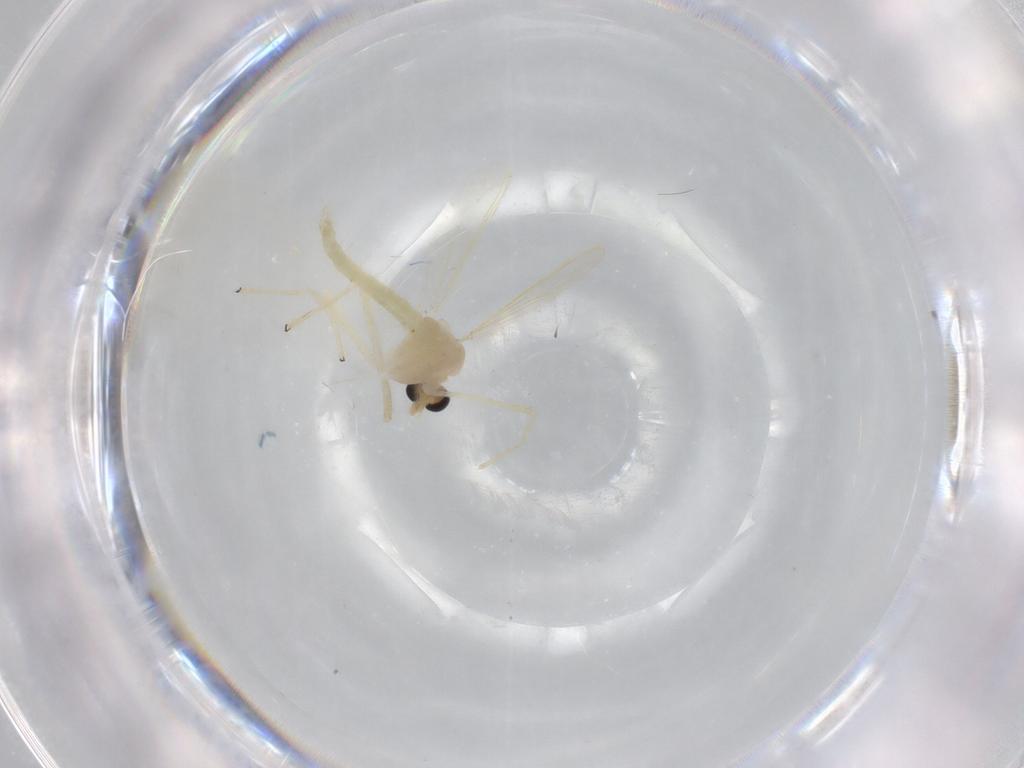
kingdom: Animalia
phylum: Arthropoda
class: Insecta
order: Diptera
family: Chironomidae
